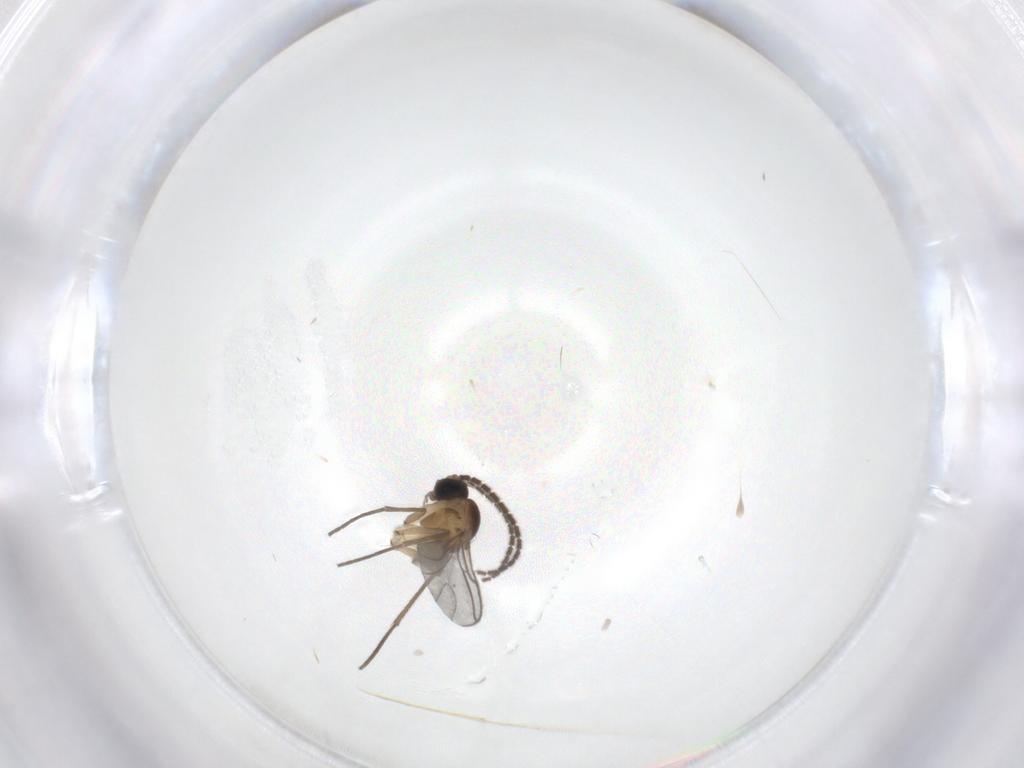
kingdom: Animalia
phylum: Arthropoda
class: Insecta
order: Diptera
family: Sciaridae
